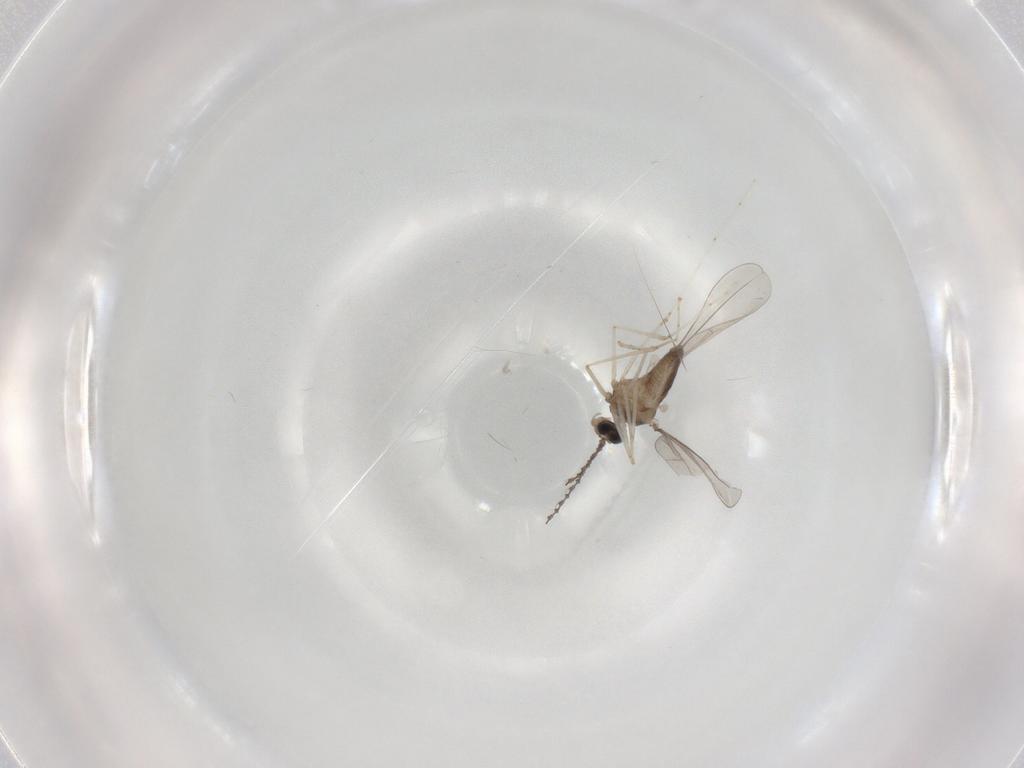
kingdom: Animalia
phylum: Arthropoda
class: Insecta
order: Diptera
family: Cecidomyiidae
